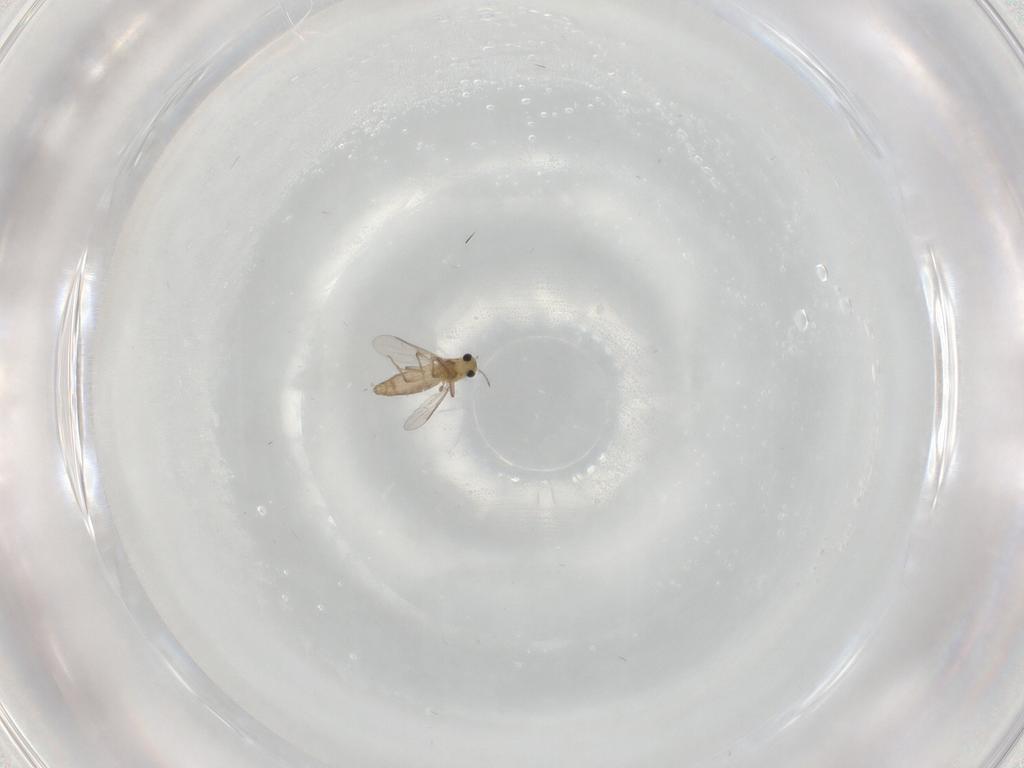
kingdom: Animalia
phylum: Arthropoda
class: Insecta
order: Diptera
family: Chironomidae
